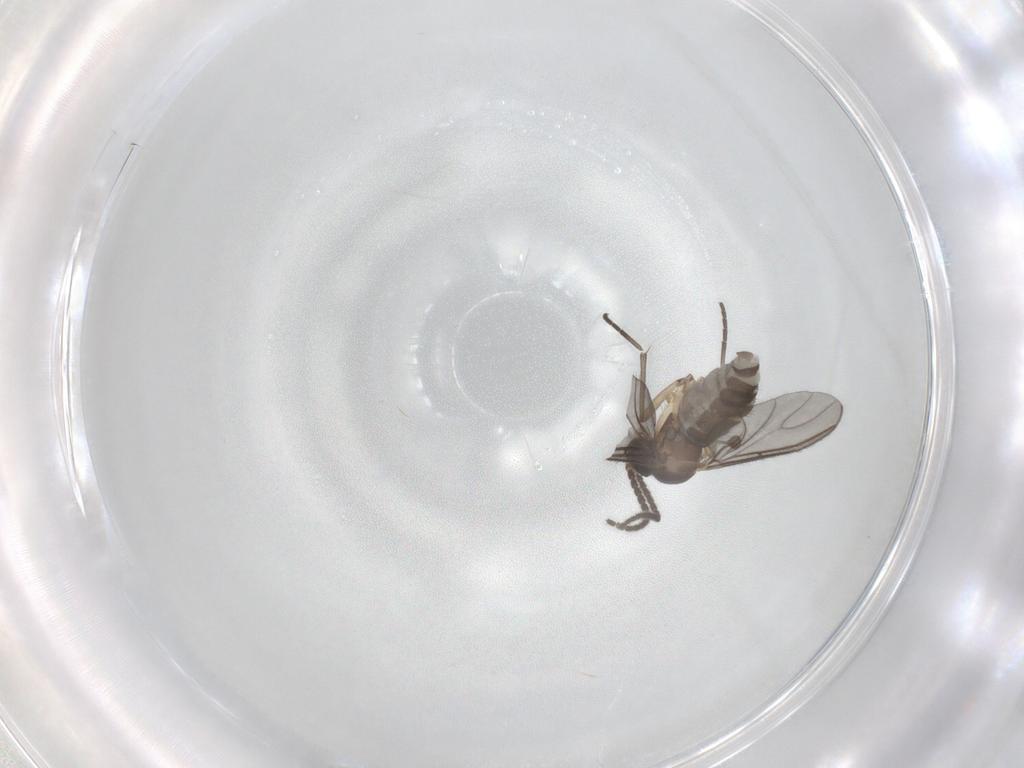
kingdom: Animalia
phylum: Arthropoda
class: Insecta
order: Diptera
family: Sciaridae
